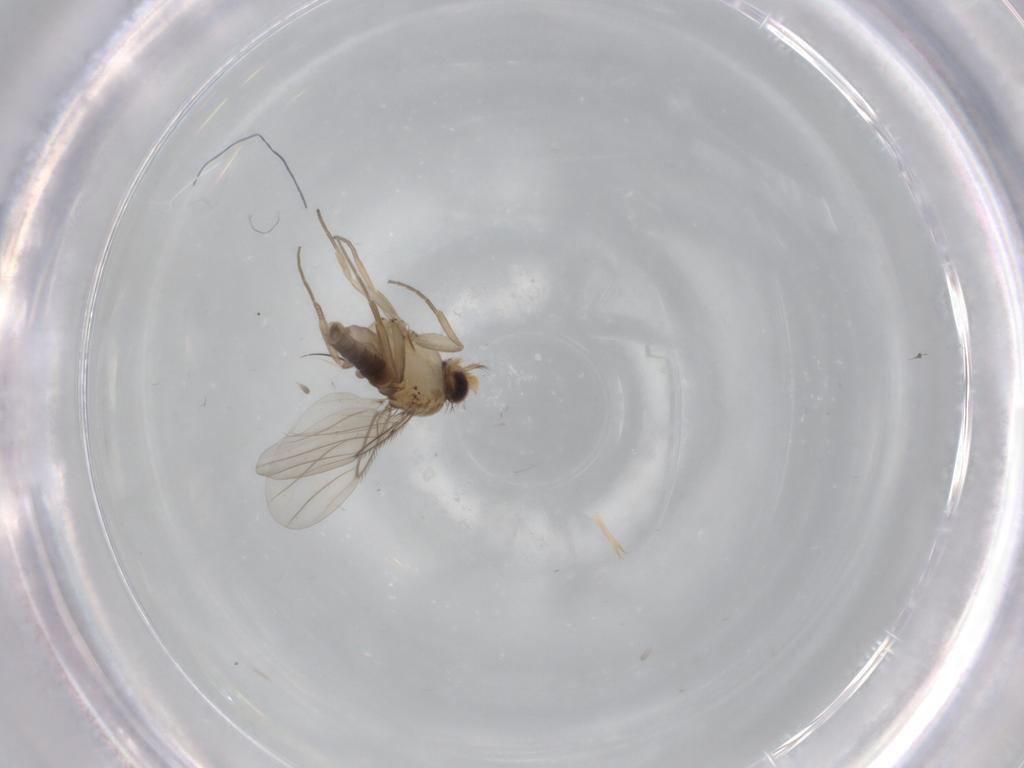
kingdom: Animalia
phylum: Arthropoda
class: Insecta
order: Diptera
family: Phoridae
